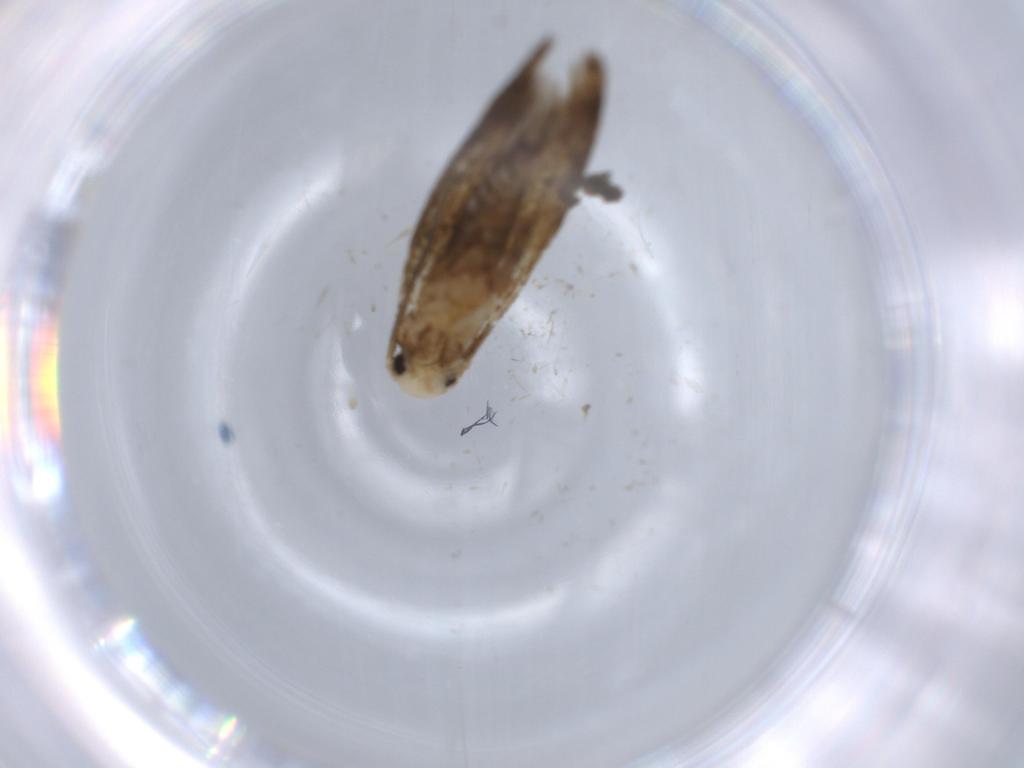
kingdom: Animalia
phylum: Arthropoda
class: Insecta
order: Lepidoptera
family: Tineidae
